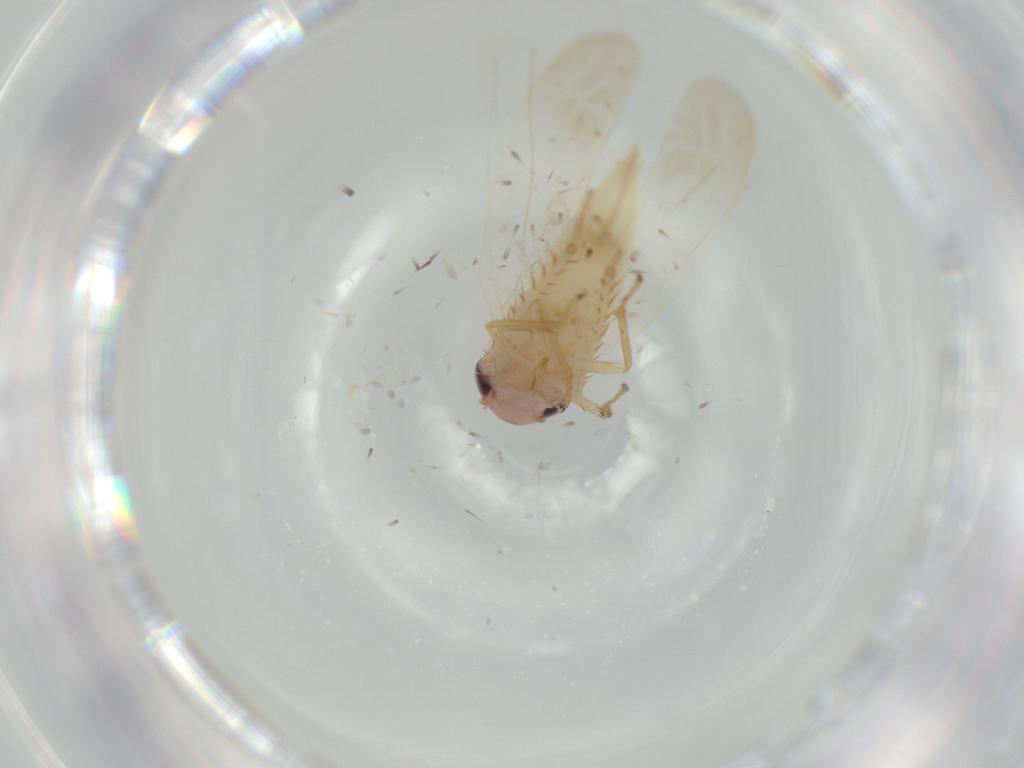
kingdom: Animalia
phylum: Arthropoda
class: Insecta
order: Hemiptera
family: Cicadellidae
